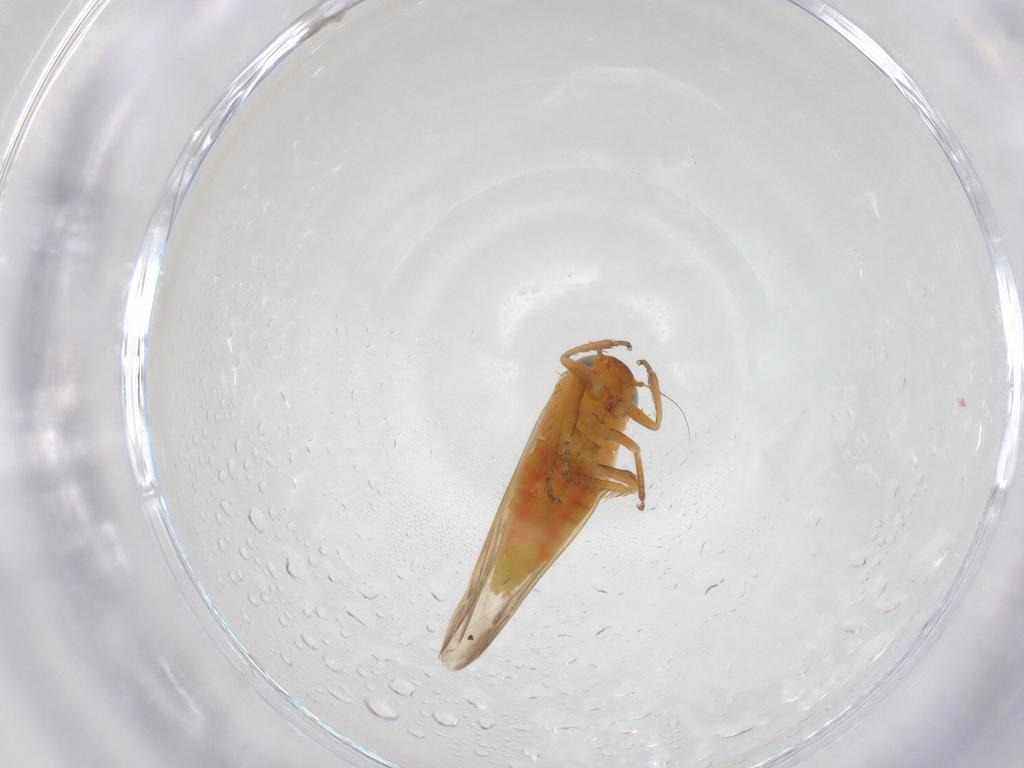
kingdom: Animalia
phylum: Arthropoda
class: Insecta
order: Hemiptera
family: Cicadellidae
